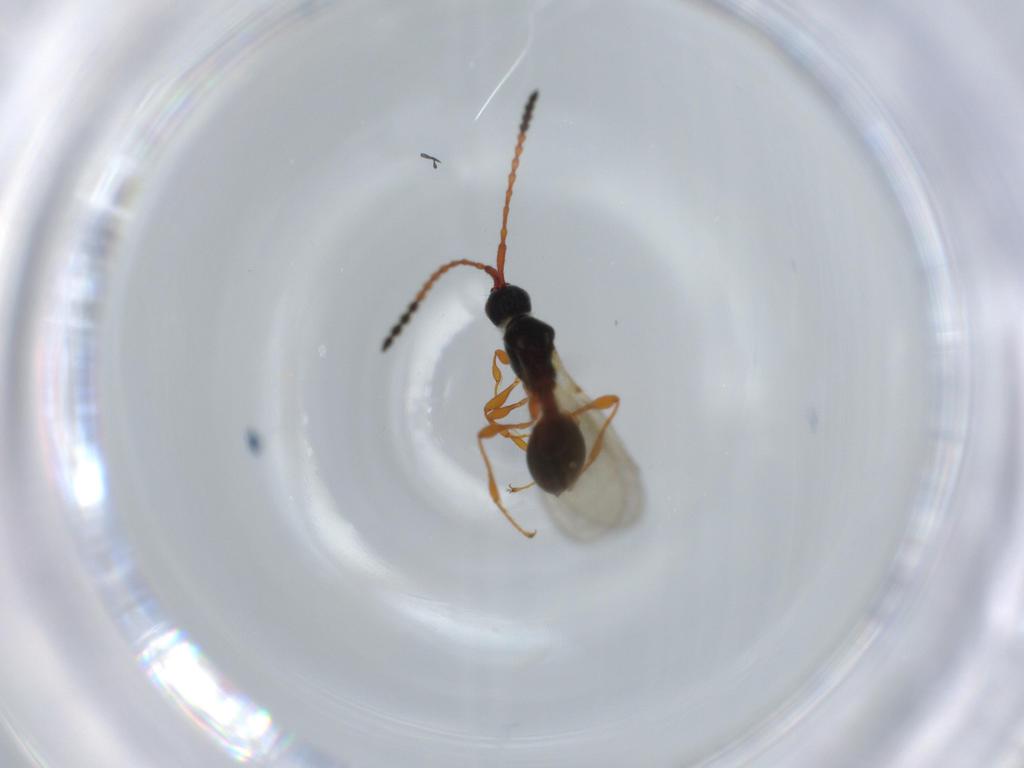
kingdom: Animalia
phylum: Arthropoda
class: Insecta
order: Hymenoptera
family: Diapriidae
